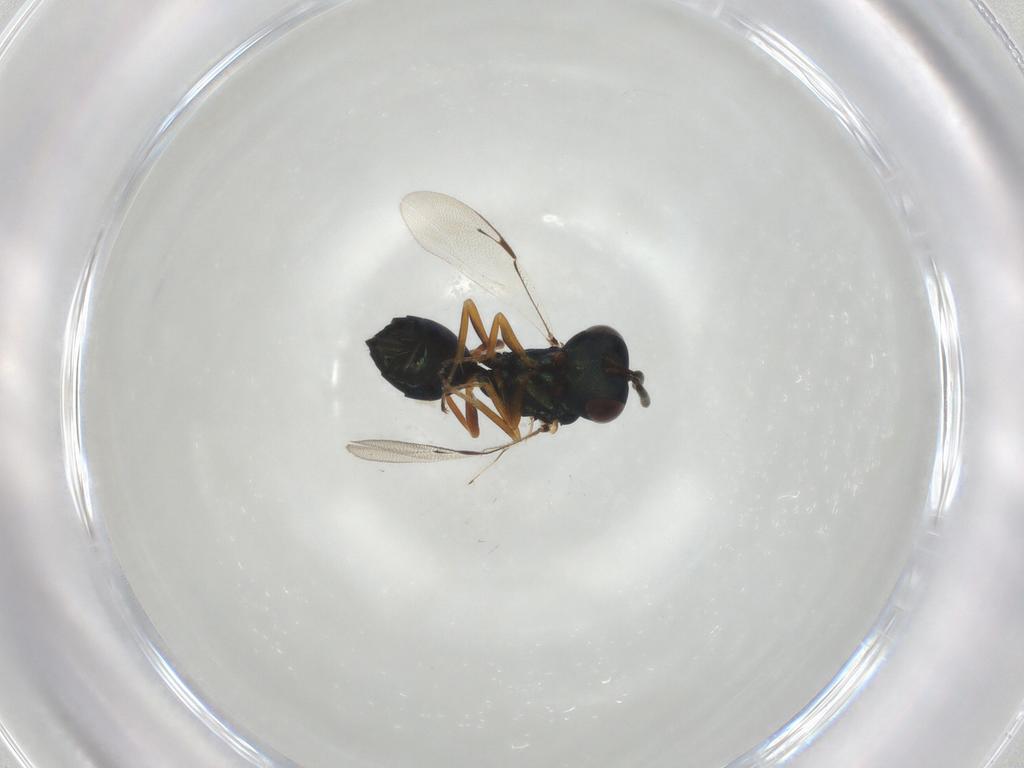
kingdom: Animalia
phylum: Arthropoda
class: Insecta
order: Hymenoptera
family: Pteromalidae
